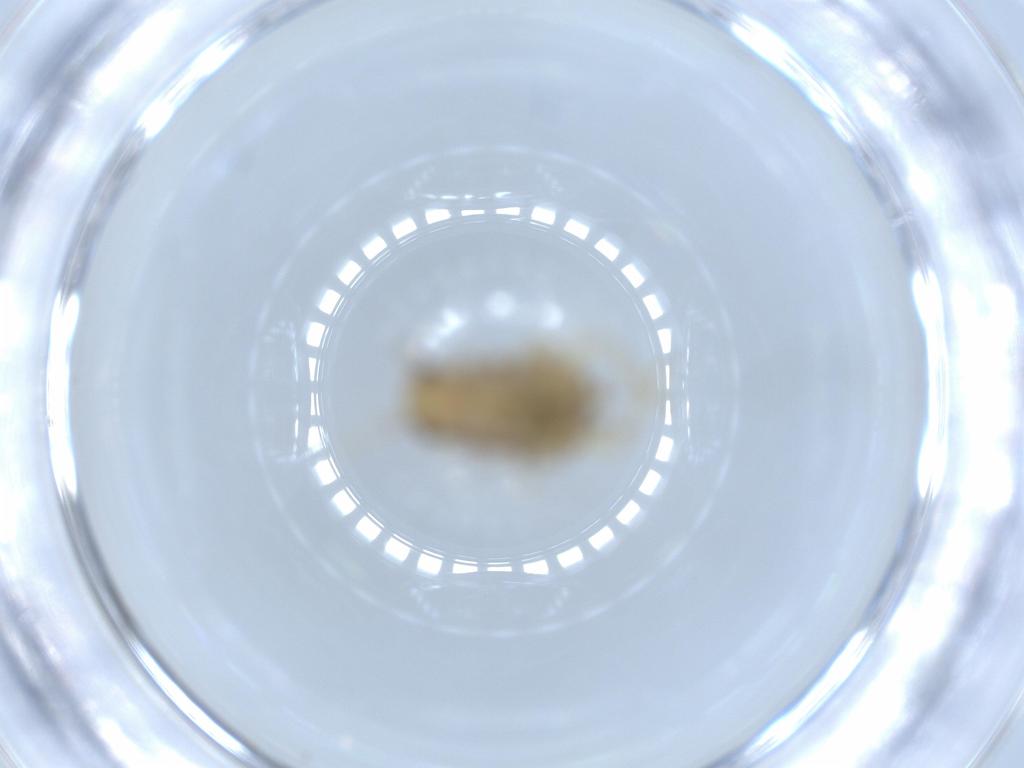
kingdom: Animalia
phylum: Arthropoda
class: Insecta
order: Blattodea
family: Ectobiidae
